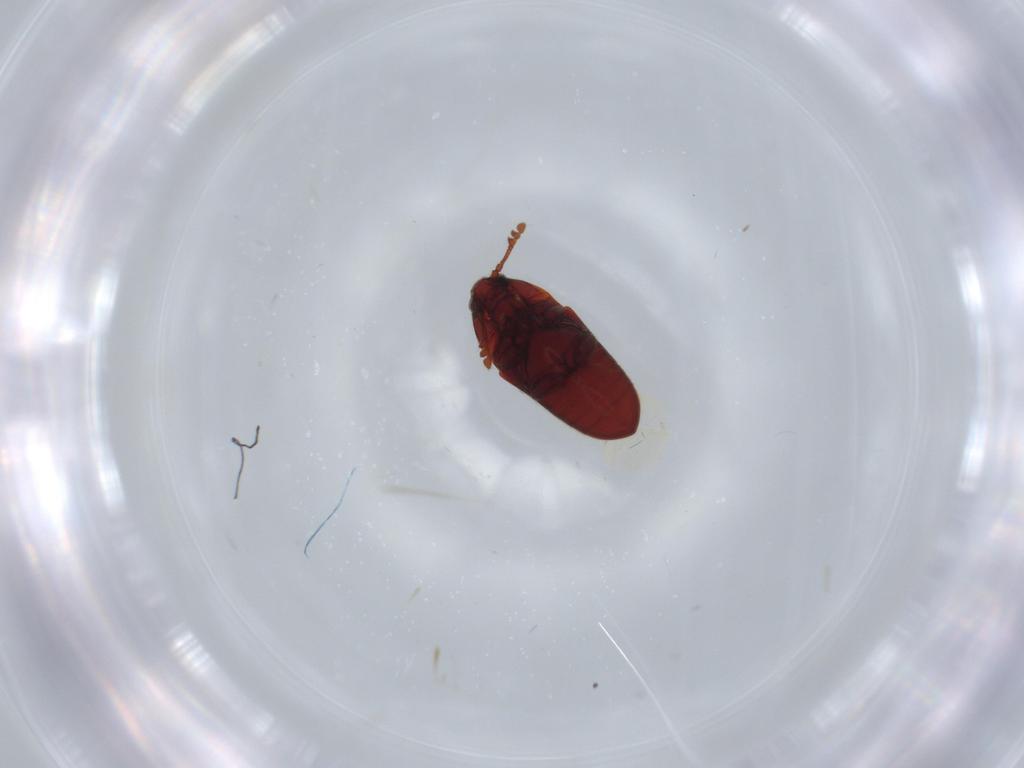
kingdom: Animalia
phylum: Arthropoda
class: Insecta
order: Coleoptera
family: Throscidae
